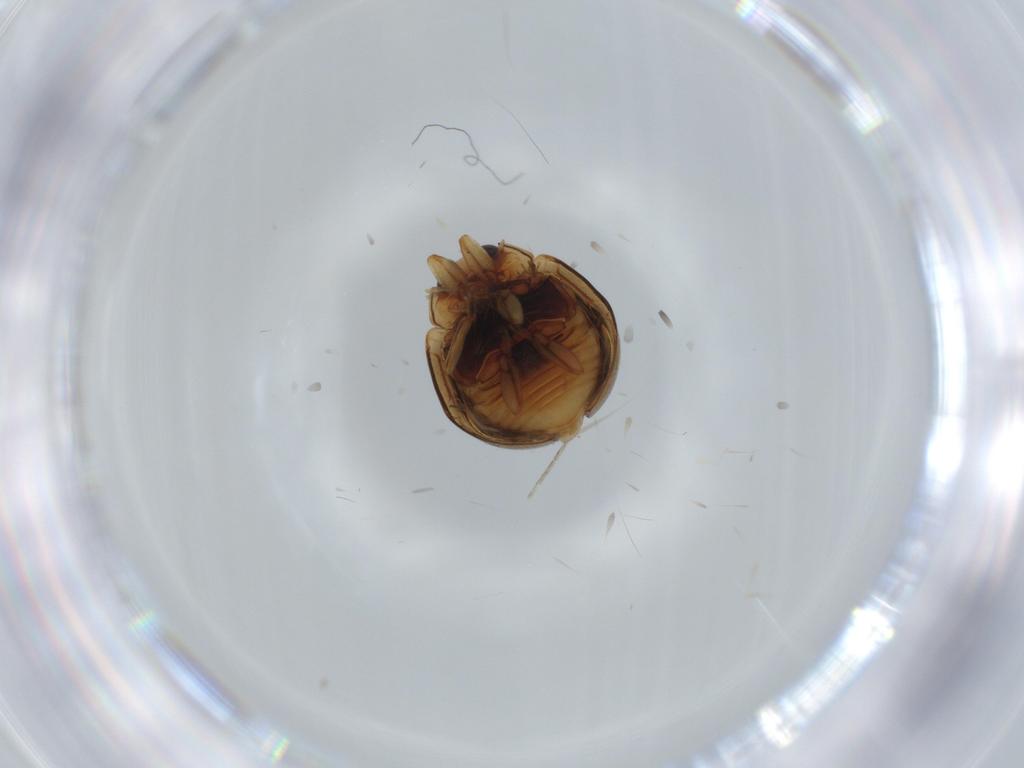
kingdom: Animalia
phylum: Arthropoda
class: Insecta
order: Coleoptera
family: Coccinellidae
